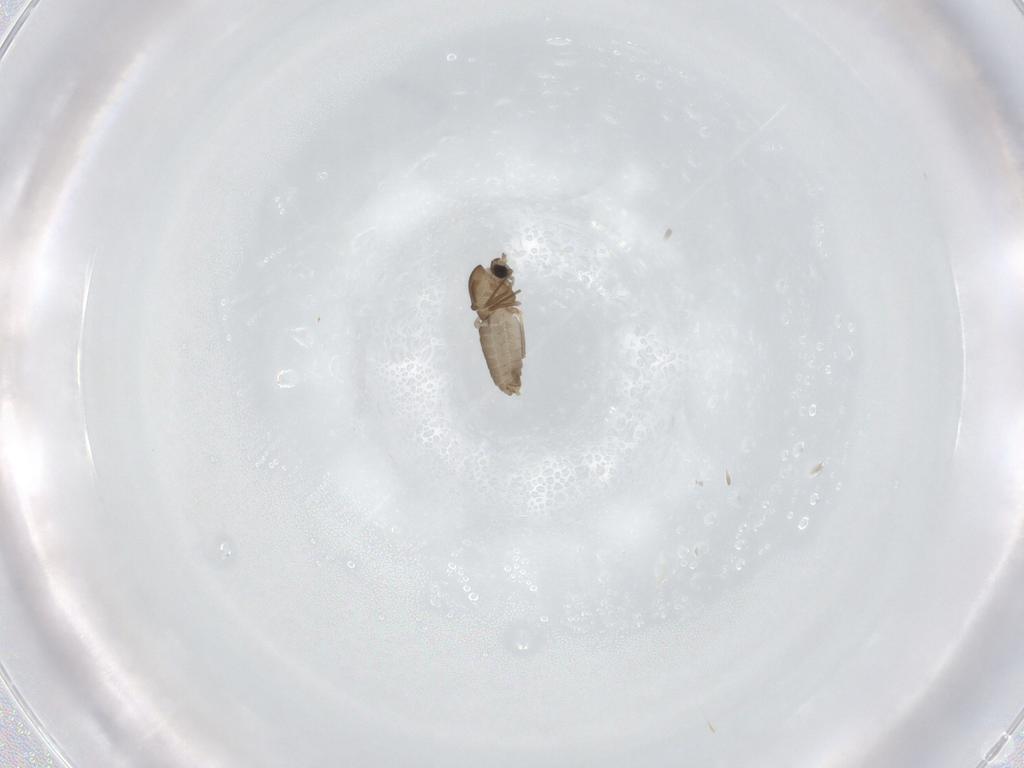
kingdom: Animalia
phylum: Arthropoda
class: Insecta
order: Diptera
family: Chironomidae
